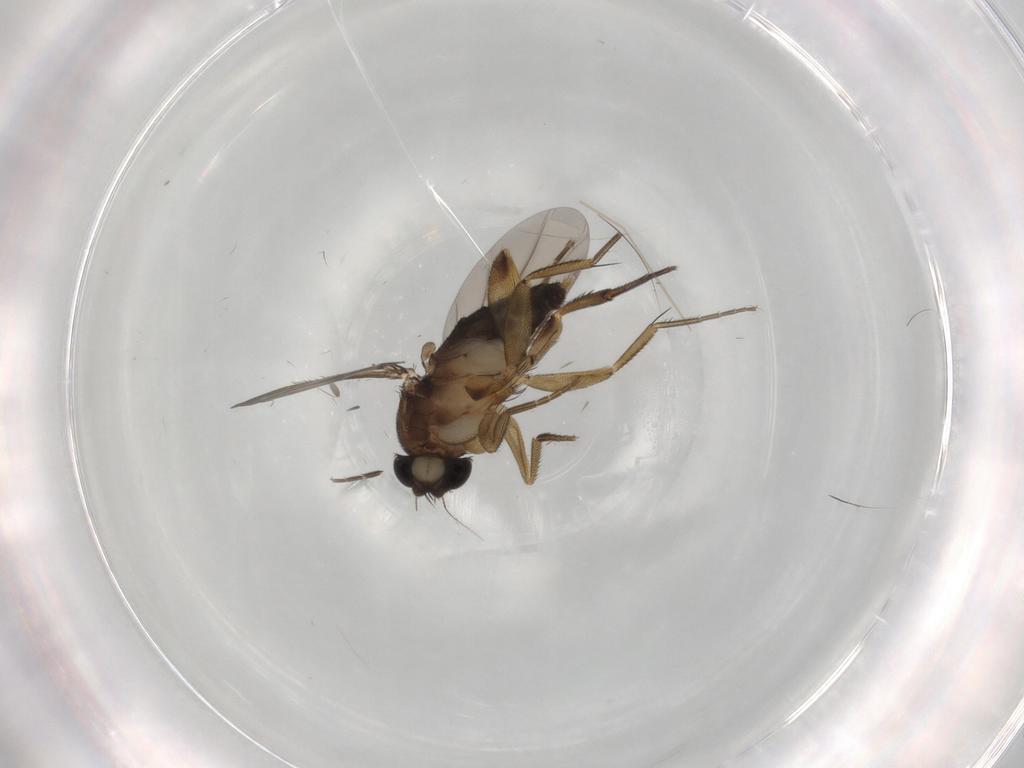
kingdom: Animalia
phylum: Arthropoda
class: Insecta
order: Diptera
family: Phoridae
